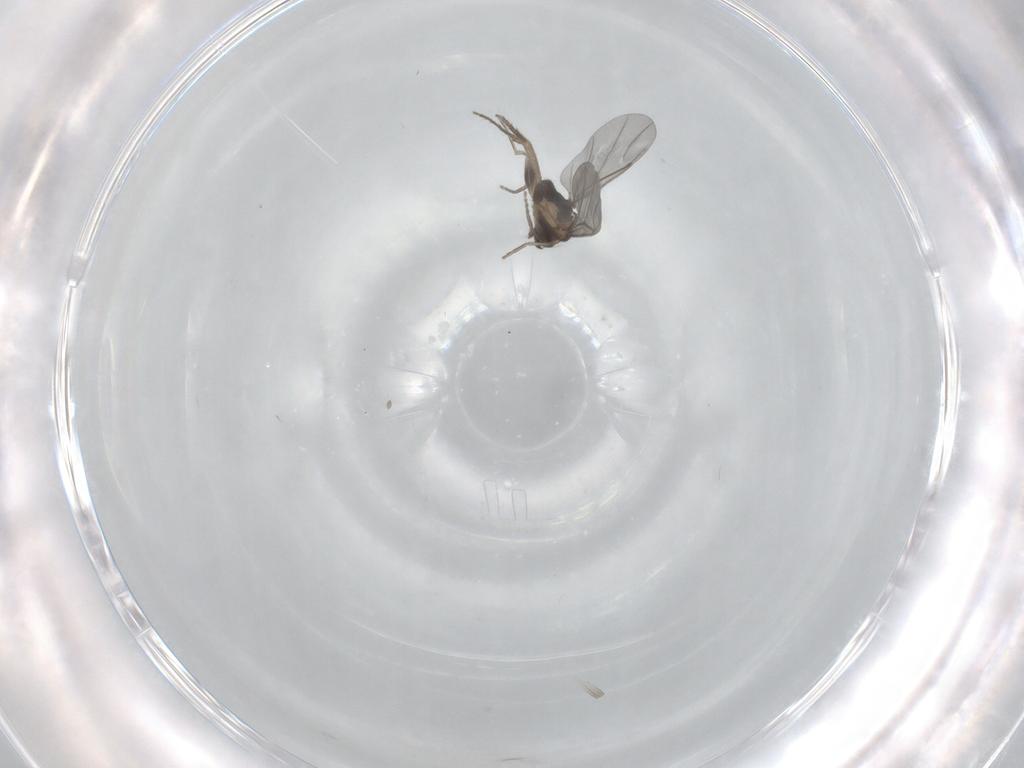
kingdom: Animalia
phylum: Arthropoda
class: Insecta
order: Diptera
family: Phoridae
